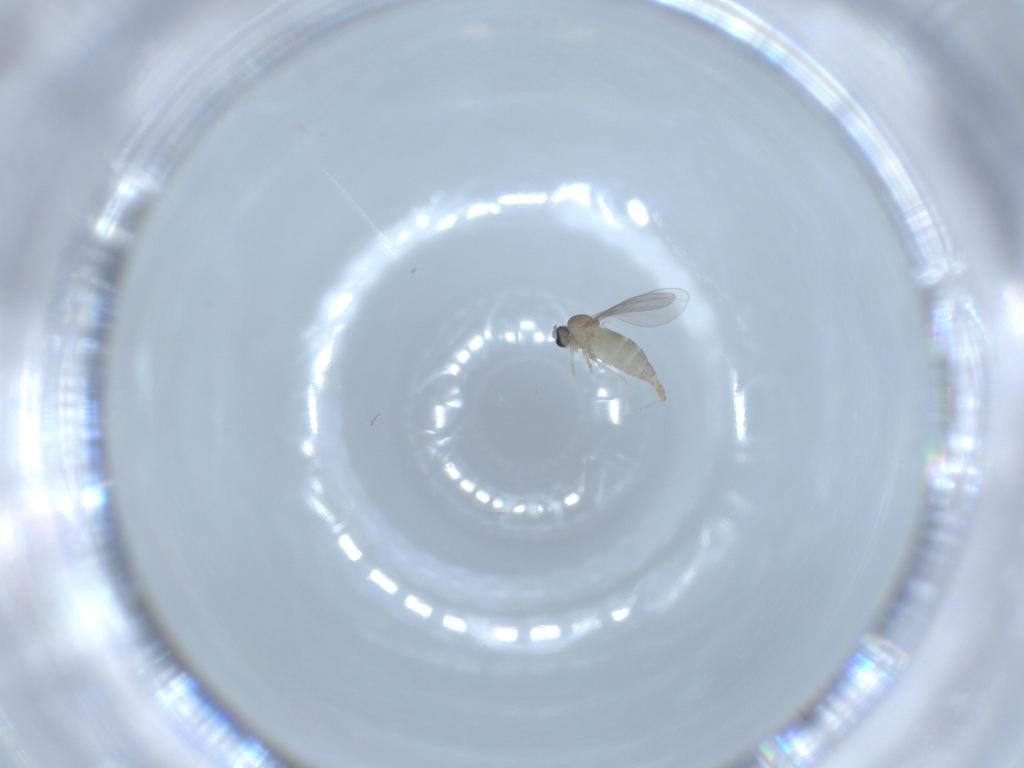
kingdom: Animalia
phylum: Arthropoda
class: Insecta
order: Diptera
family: Cecidomyiidae
